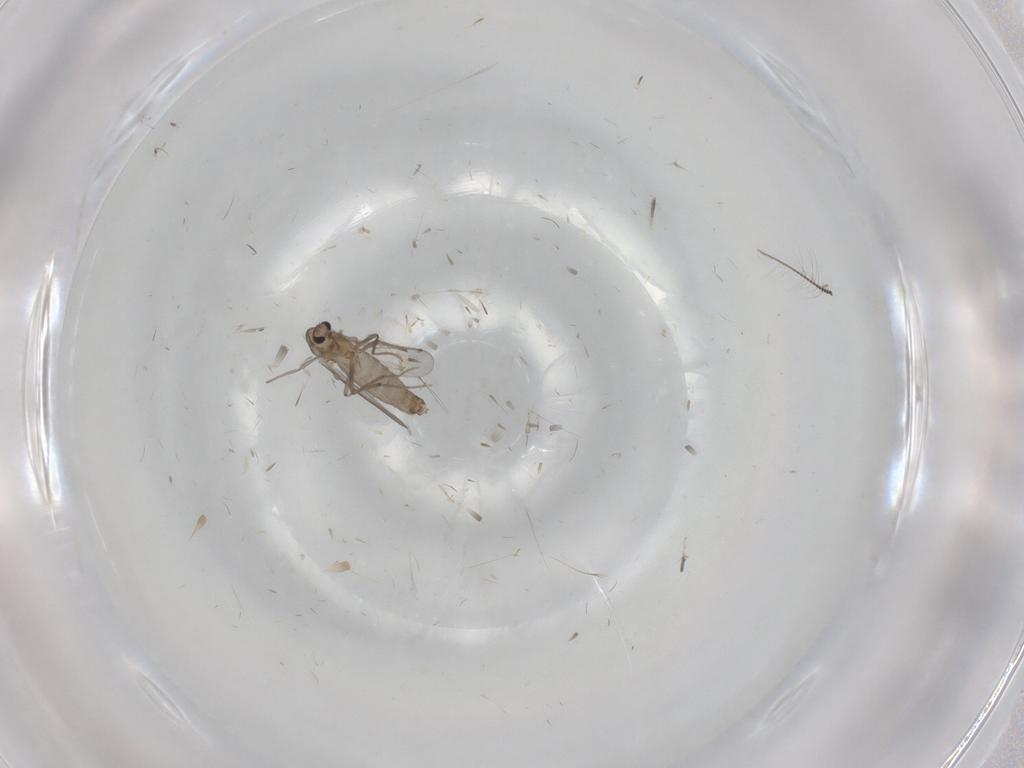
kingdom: Animalia
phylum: Arthropoda
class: Insecta
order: Diptera
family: Chironomidae
